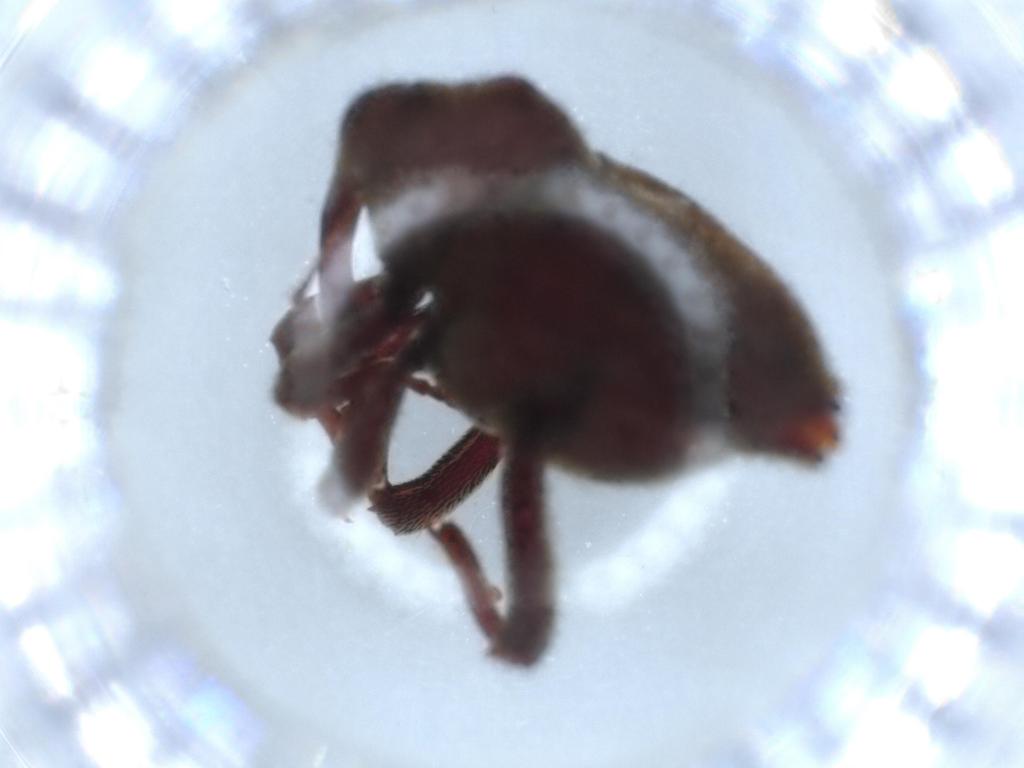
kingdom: Animalia
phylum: Arthropoda
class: Insecta
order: Coleoptera
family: Curculionidae
